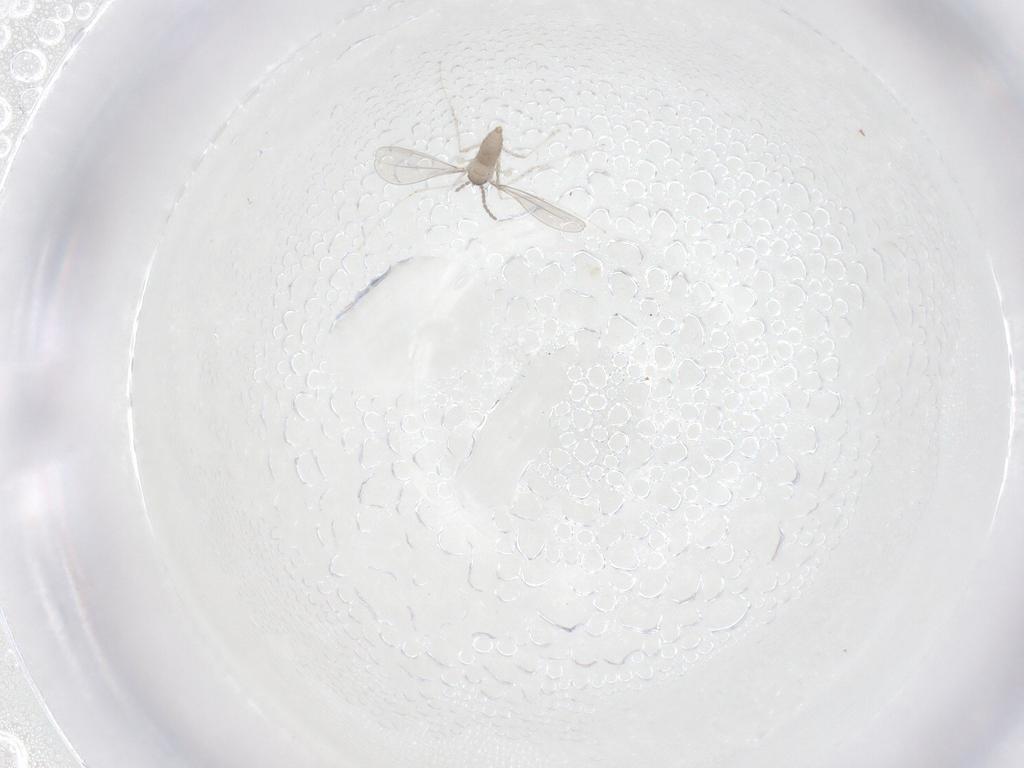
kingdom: Animalia
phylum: Arthropoda
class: Insecta
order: Diptera
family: Cecidomyiidae
